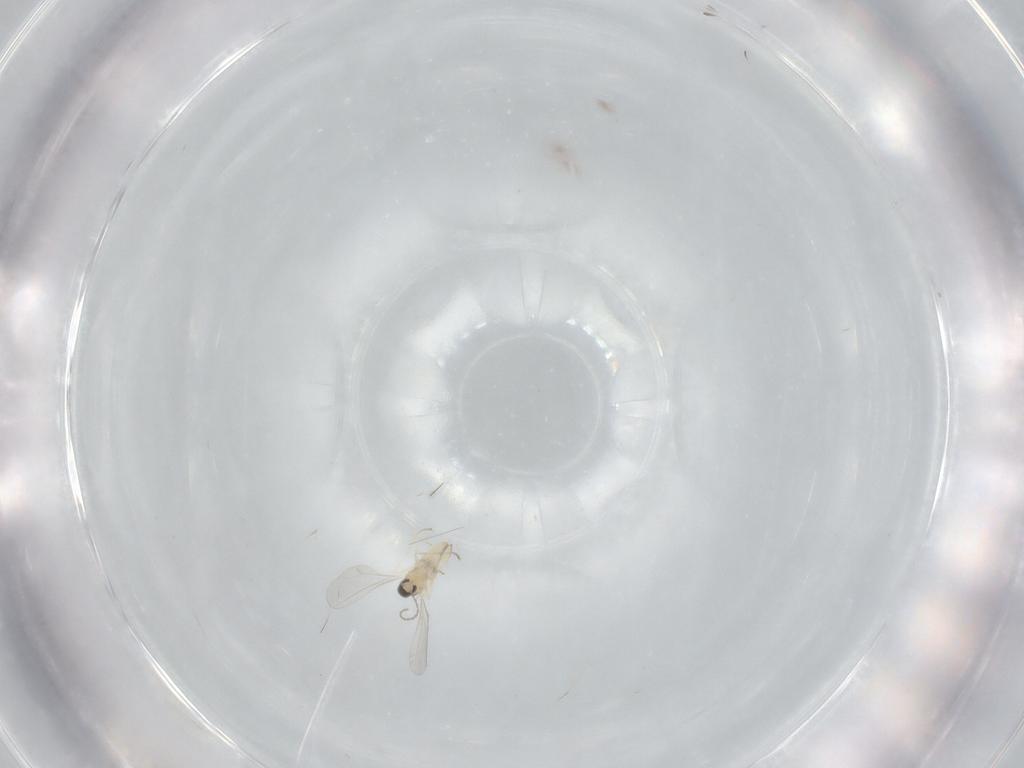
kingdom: Animalia
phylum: Arthropoda
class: Insecta
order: Diptera
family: Cecidomyiidae
